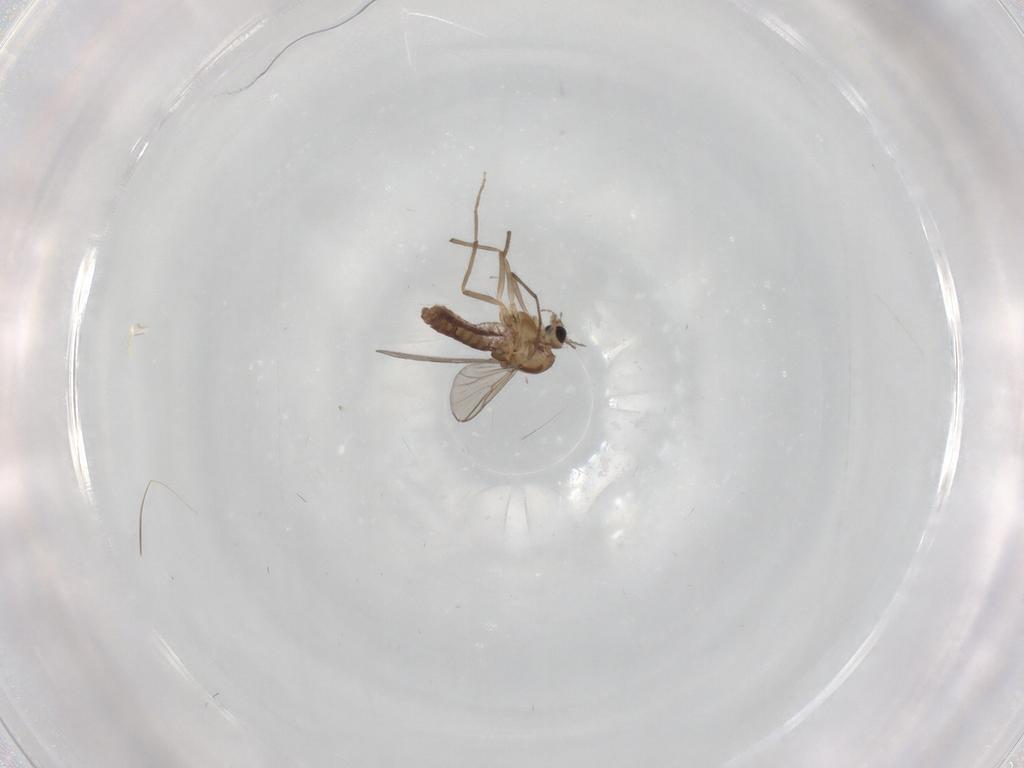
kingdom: Animalia
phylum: Arthropoda
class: Insecta
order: Diptera
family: Chironomidae
